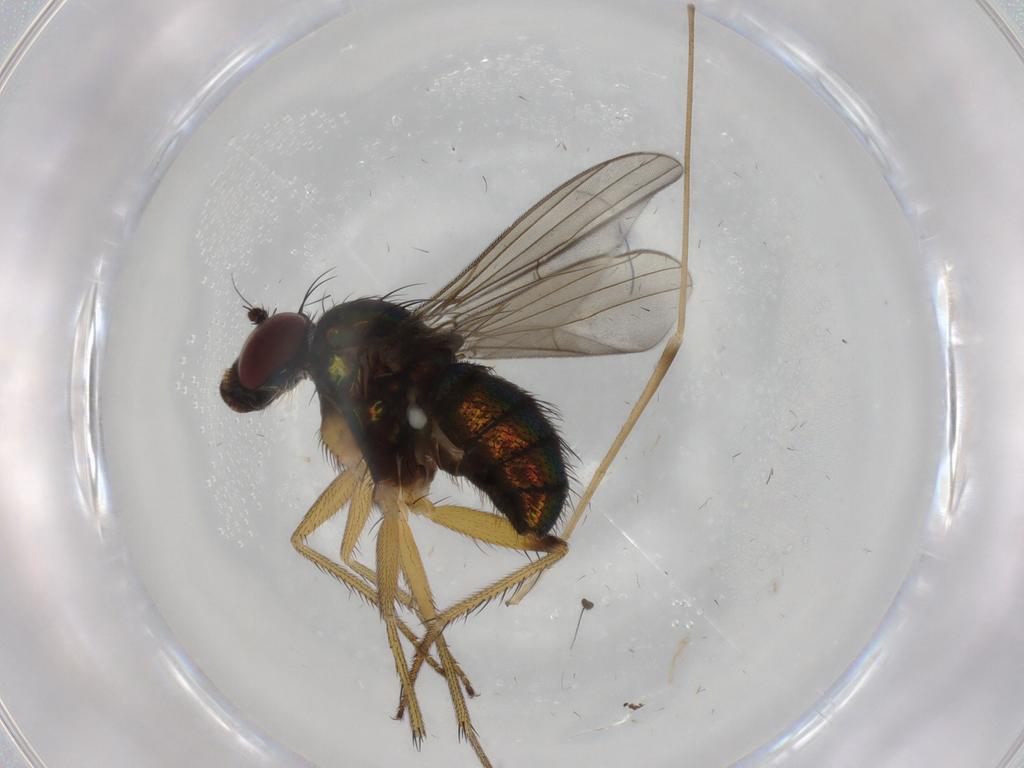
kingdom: Animalia
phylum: Arthropoda
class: Insecta
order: Diptera
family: Dolichopodidae
